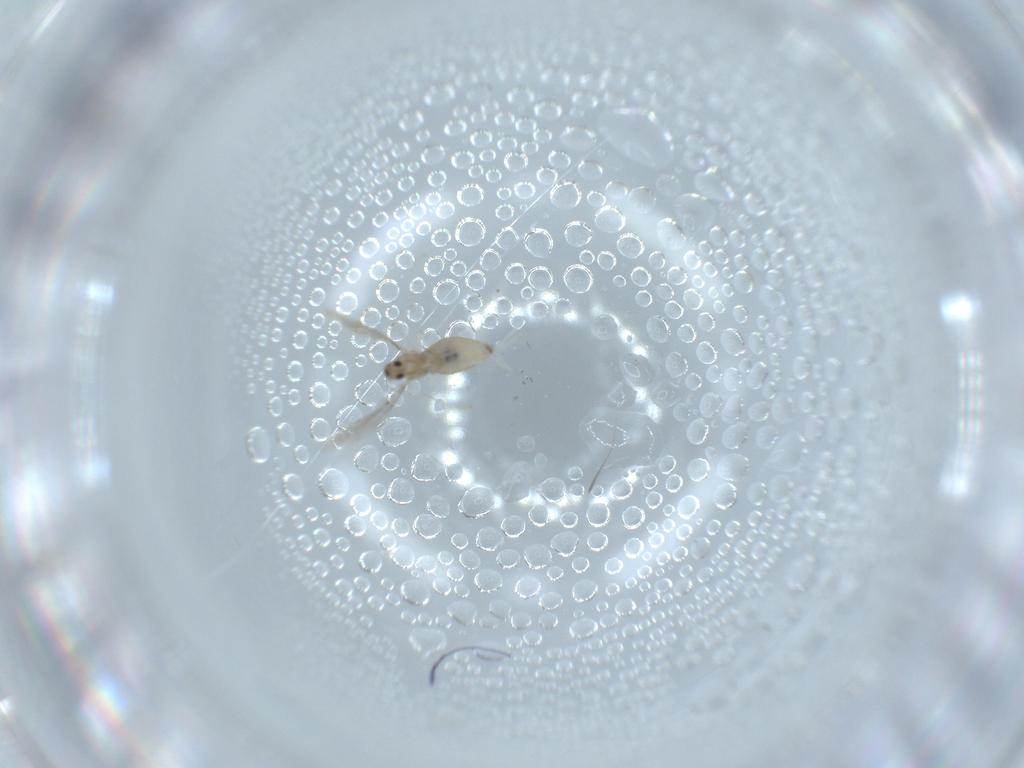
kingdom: Animalia
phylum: Arthropoda
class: Insecta
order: Diptera
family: Cecidomyiidae
